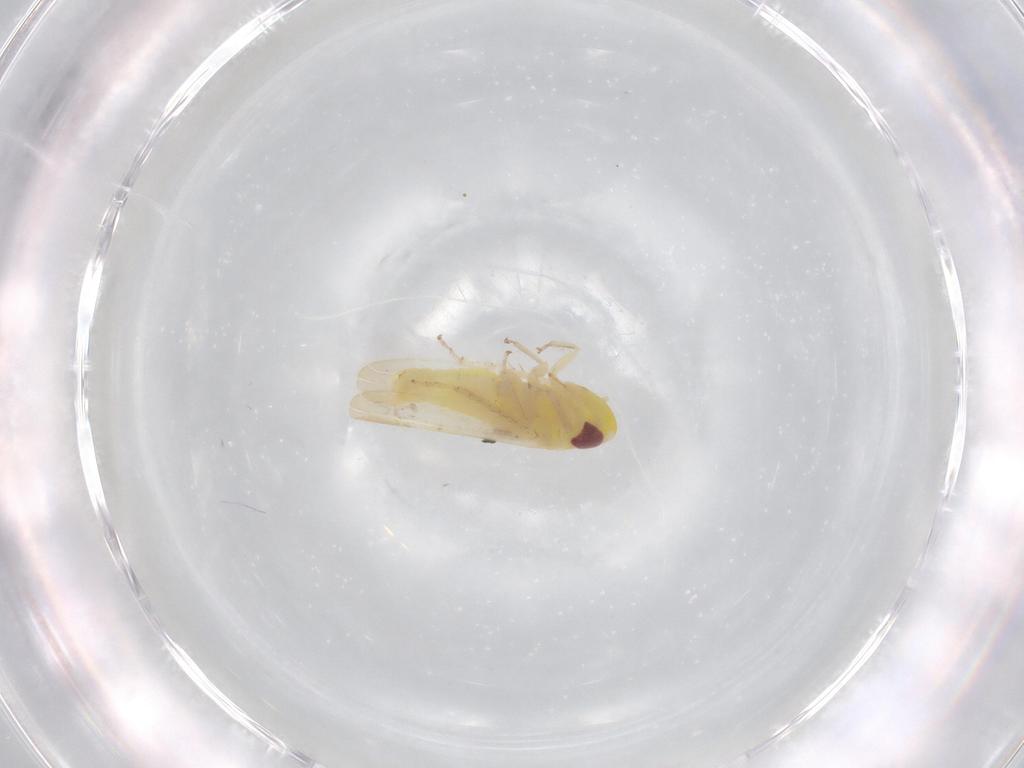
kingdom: Animalia
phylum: Arthropoda
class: Insecta
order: Hemiptera
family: Cicadellidae
